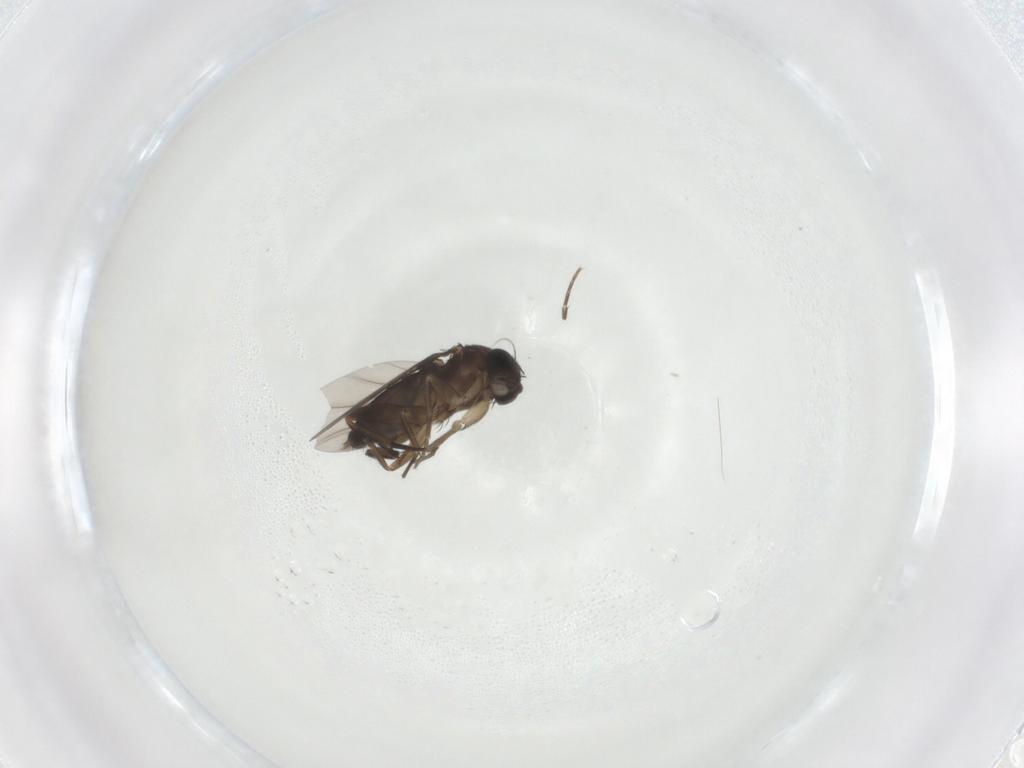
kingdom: Animalia
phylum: Arthropoda
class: Insecta
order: Diptera
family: Phoridae
